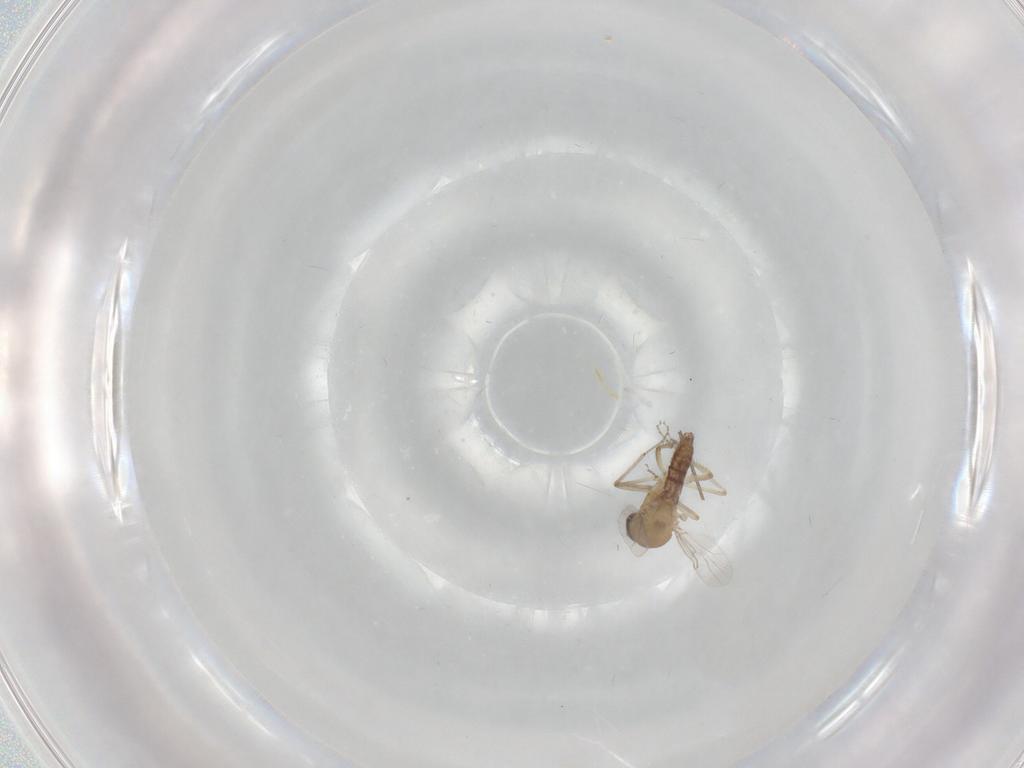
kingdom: Animalia
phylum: Arthropoda
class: Insecta
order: Diptera
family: Ceratopogonidae
